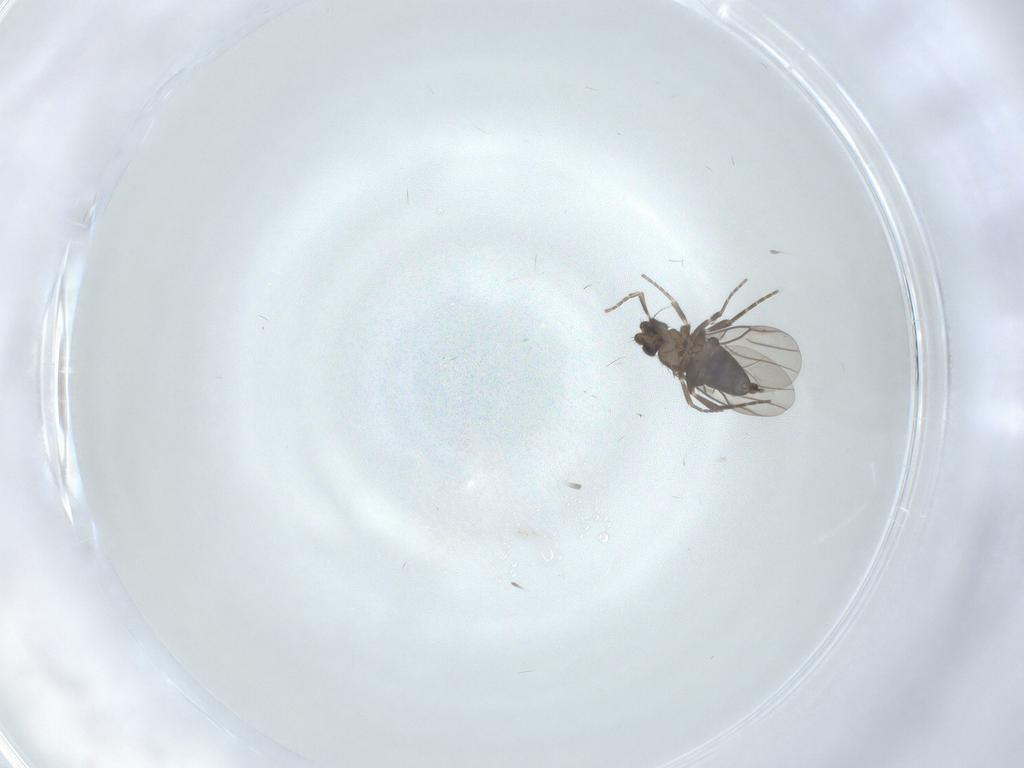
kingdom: Animalia
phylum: Arthropoda
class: Insecta
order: Diptera
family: Phoridae
